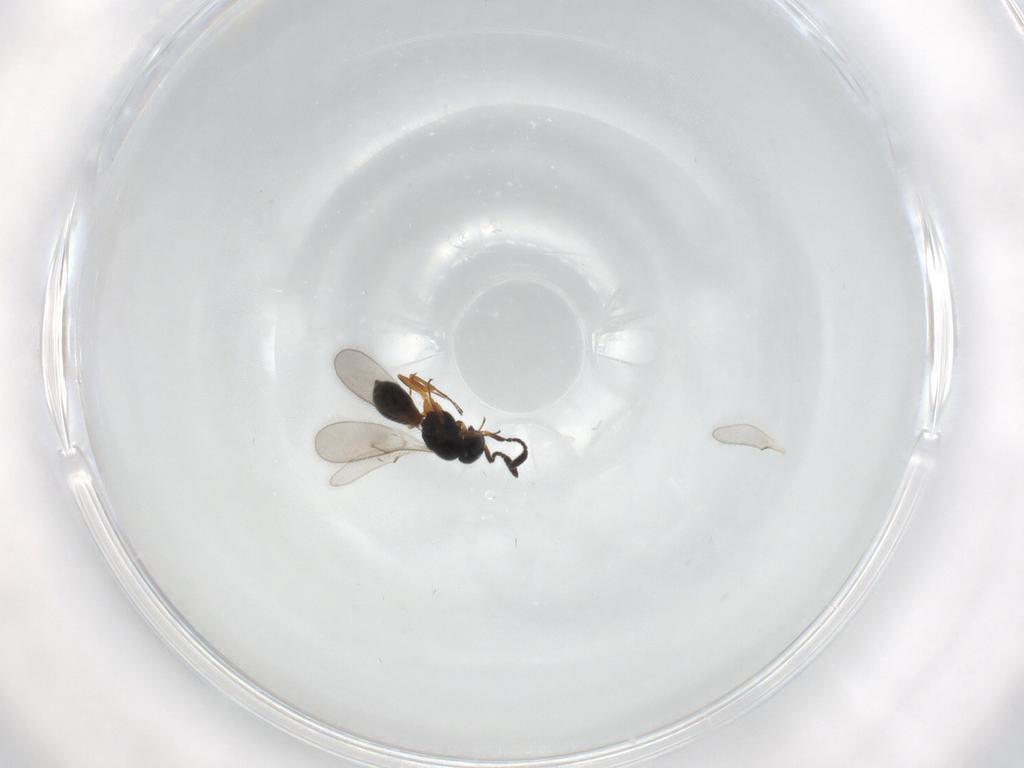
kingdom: Animalia
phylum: Arthropoda
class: Insecta
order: Hymenoptera
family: Scelionidae
